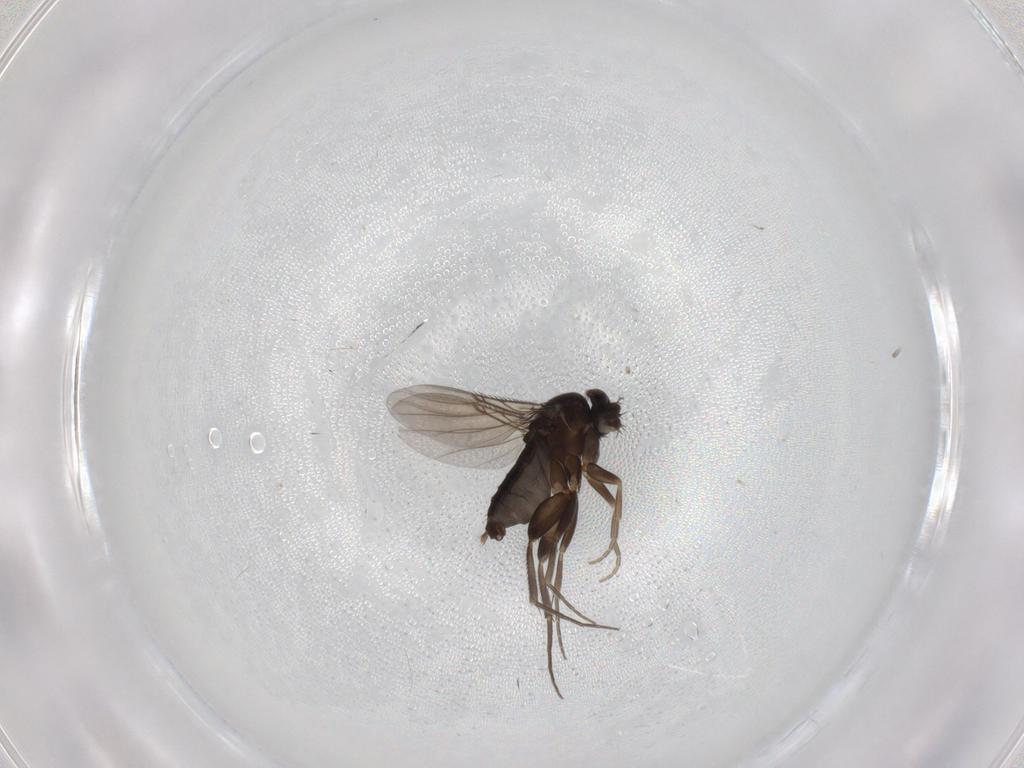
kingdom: Animalia
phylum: Arthropoda
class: Insecta
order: Diptera
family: Phoridae
